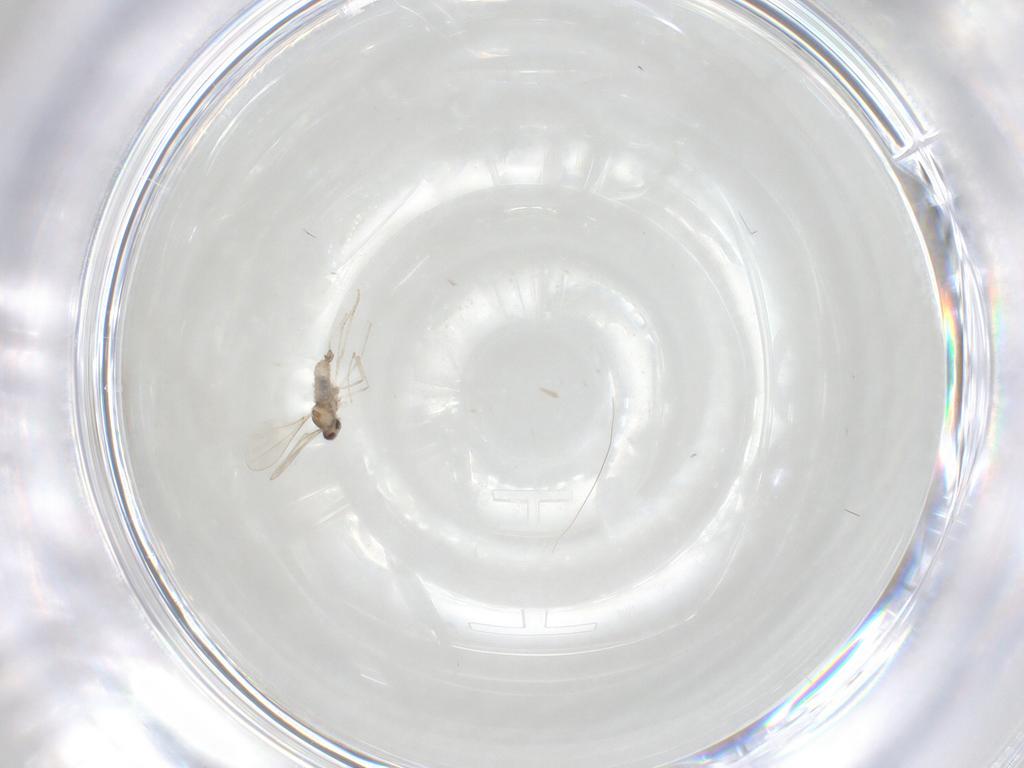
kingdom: Animalia
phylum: Arthropoda
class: Insecta
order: Diptera
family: Cecidomyiidae
